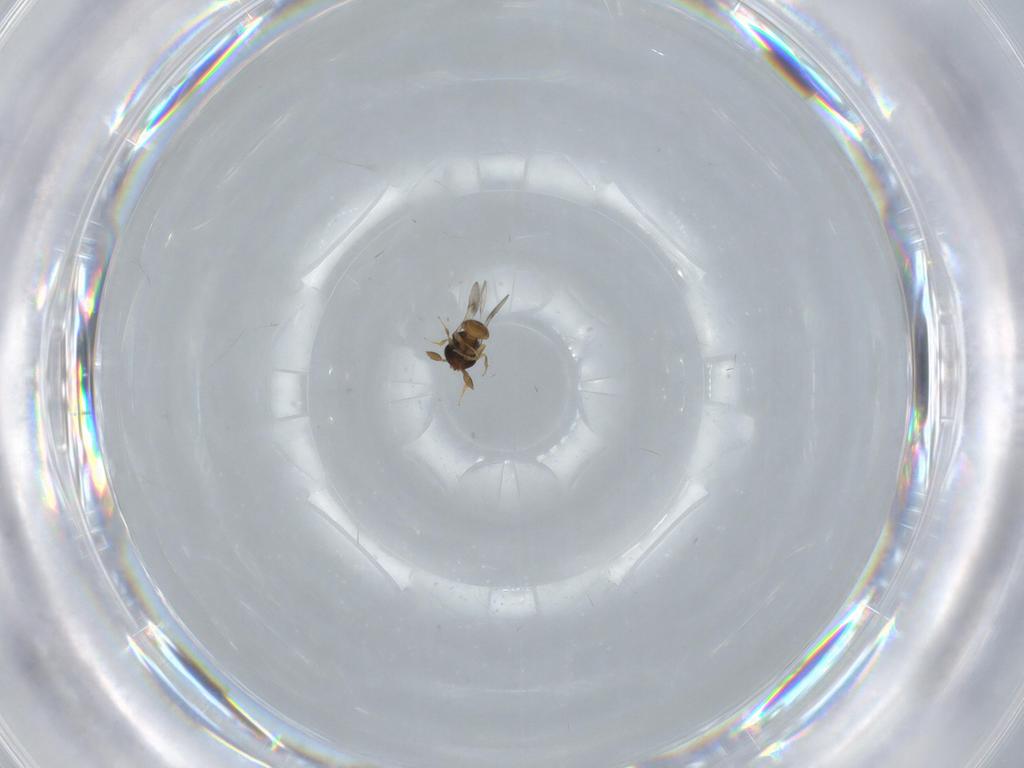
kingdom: Animalia
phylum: Arthropoda
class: Insecta
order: Hymenoptera
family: Scelionidae
